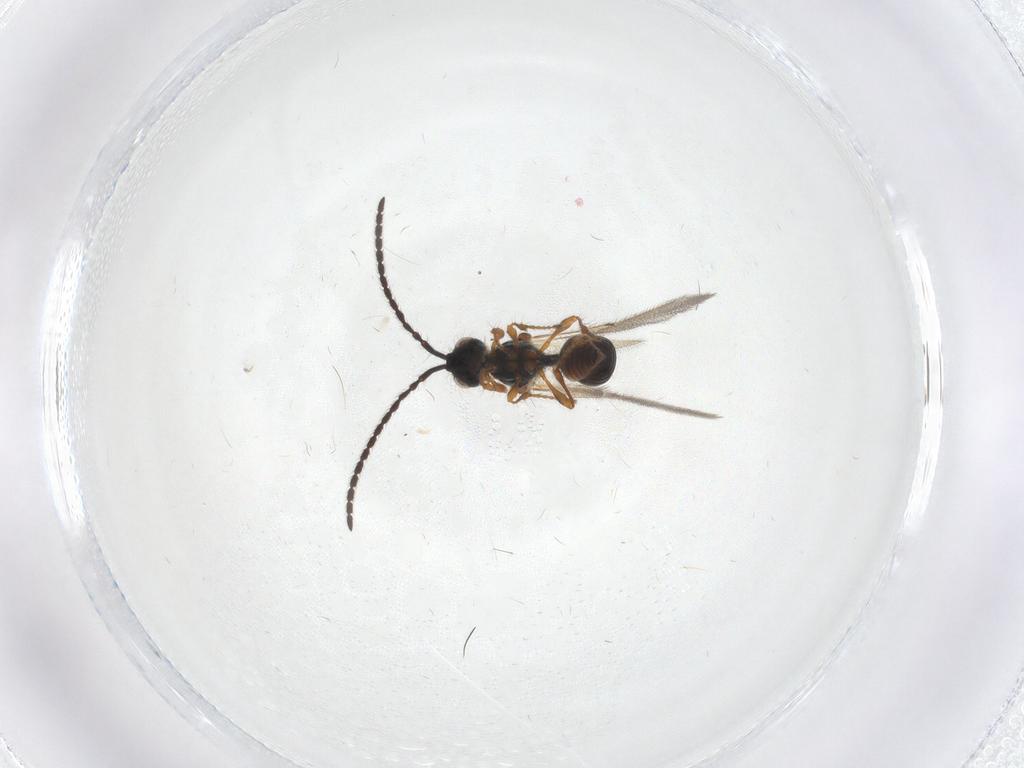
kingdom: Animalia
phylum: Arthropoda
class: Insecta
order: Hymenoptera
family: Diapriidae
